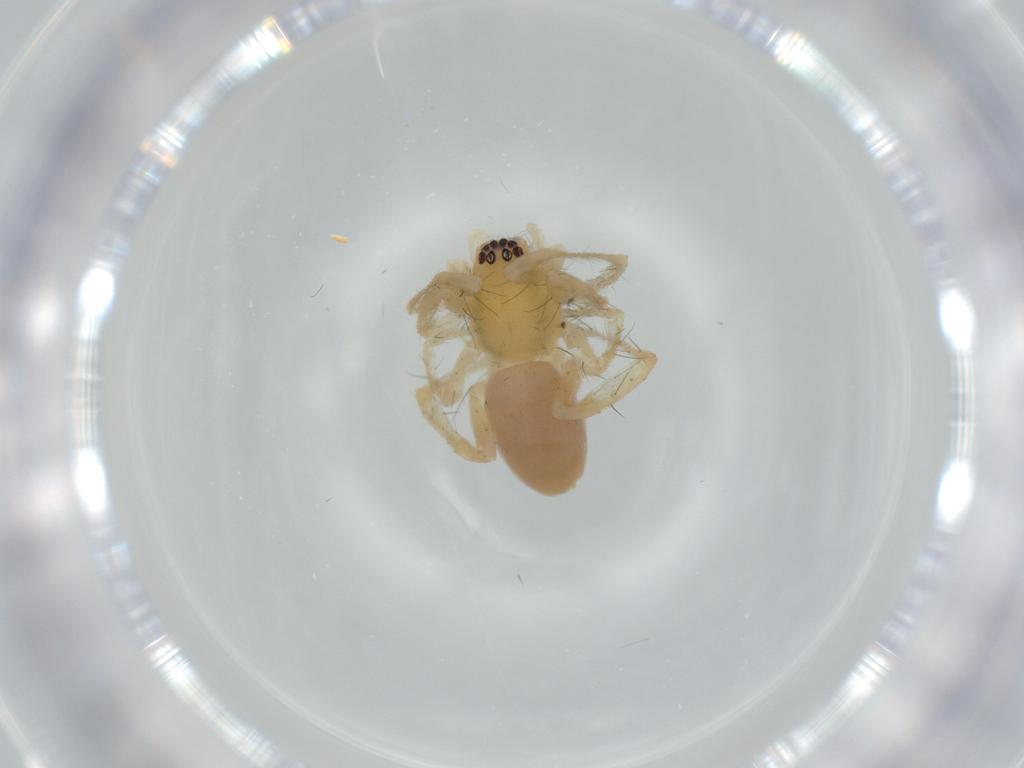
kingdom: Animalia
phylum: Arthropoda
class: Arachnida
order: Araneae
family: Anyphaenidae
